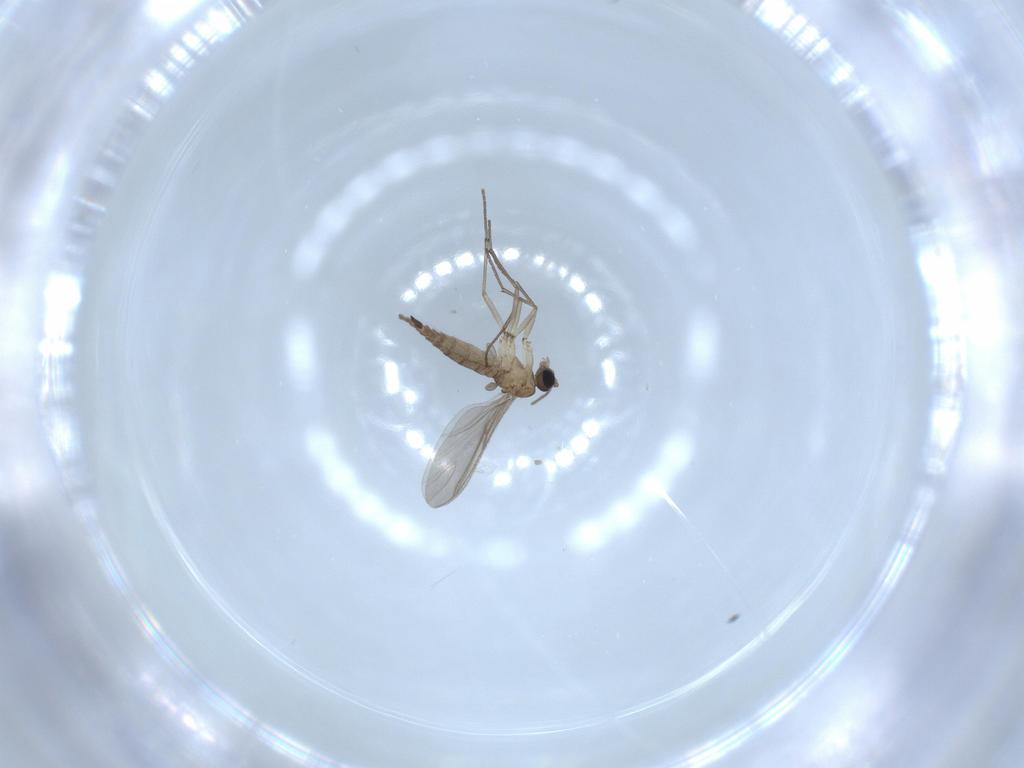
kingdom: Animalia
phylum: Arthropoda
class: Insecta
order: Diptera
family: Sciaridae
